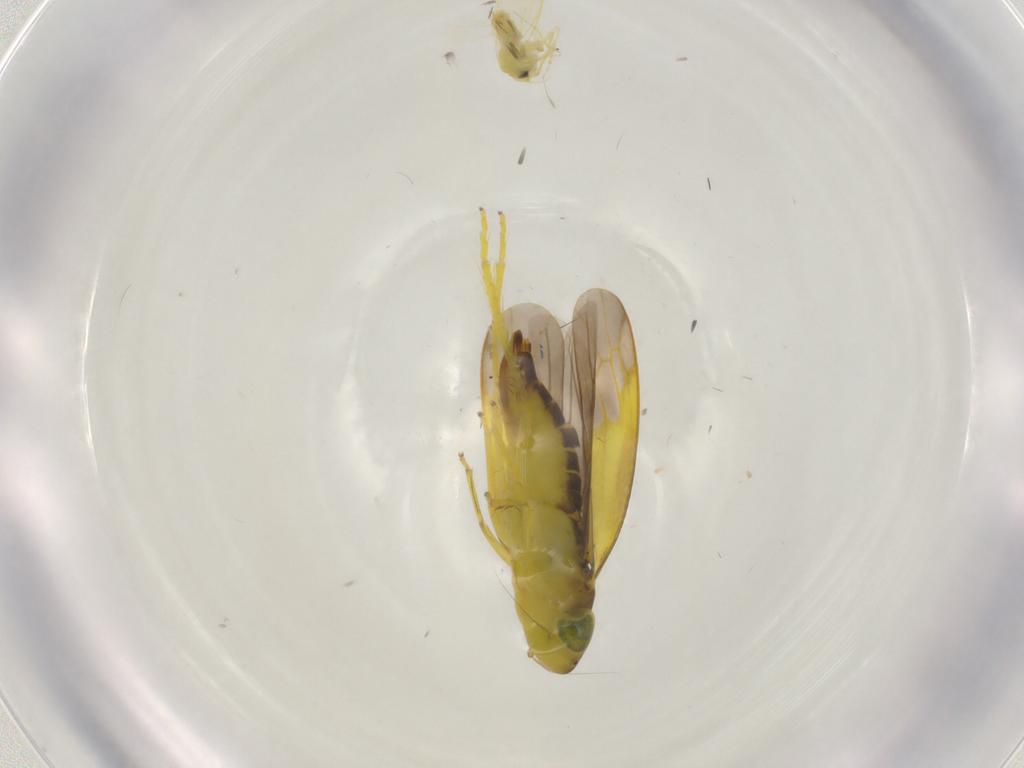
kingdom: Animalia
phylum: Arthropoda
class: Insecta
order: Hemiptera
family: Cicadellidae
